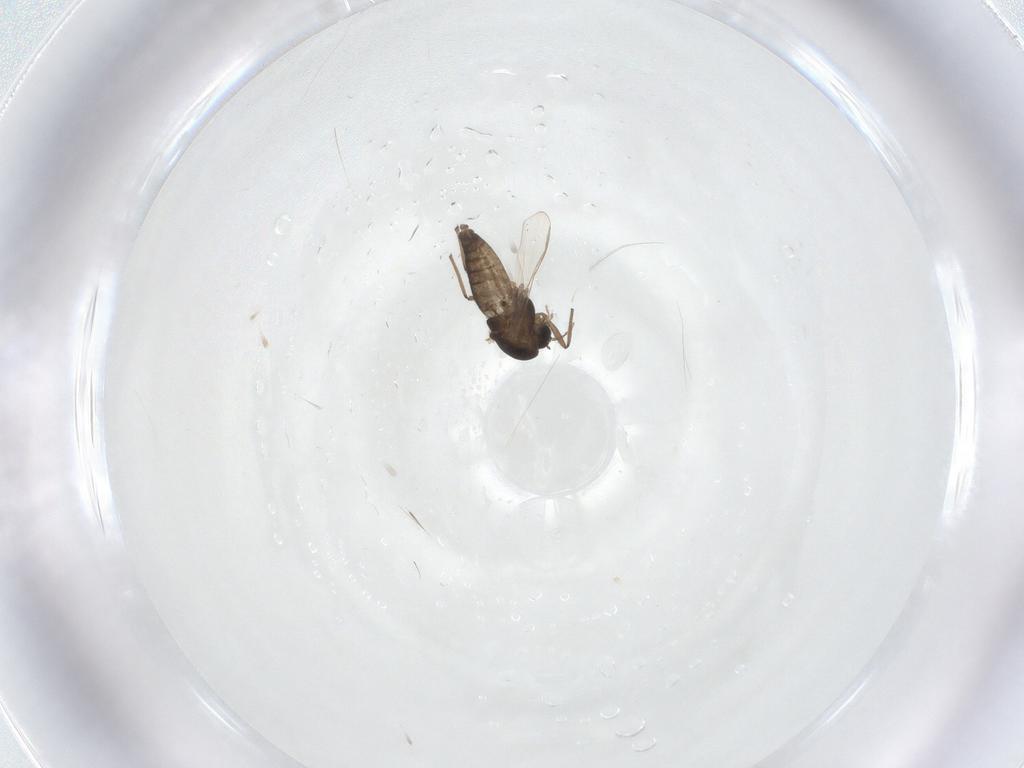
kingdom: Animalia
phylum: Arthropoda
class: Insecta
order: Diptera
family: Chironomidae
